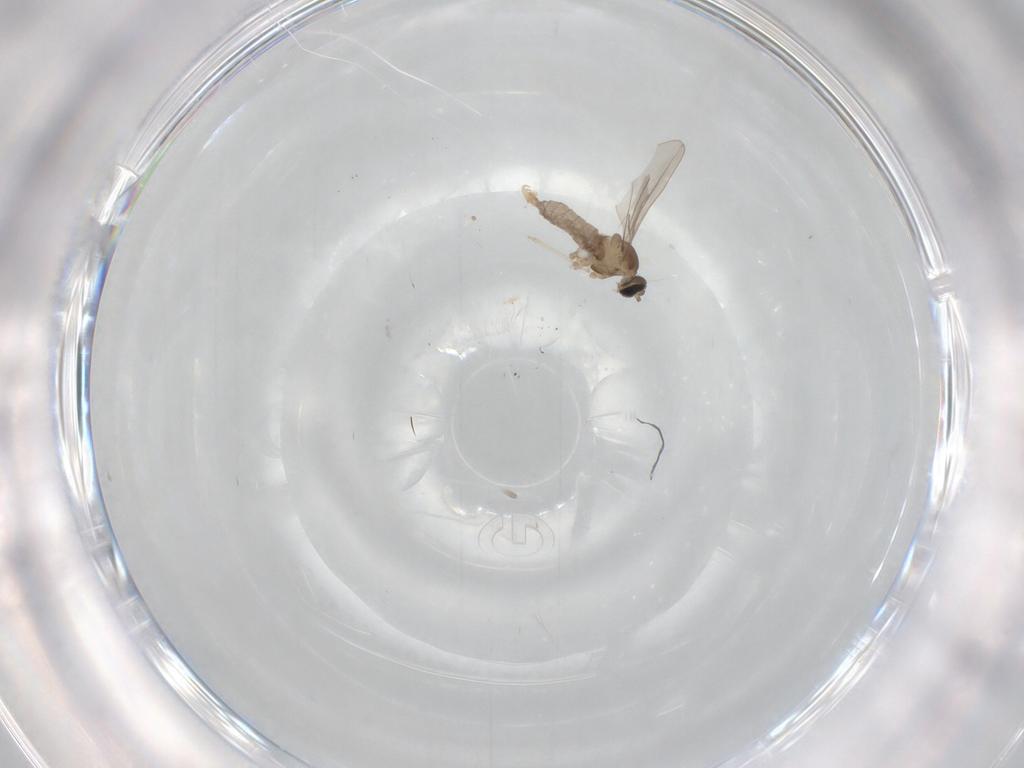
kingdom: Animalia
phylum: Arthropoda
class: Insecta
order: Diptera
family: Cecidomyiidae
